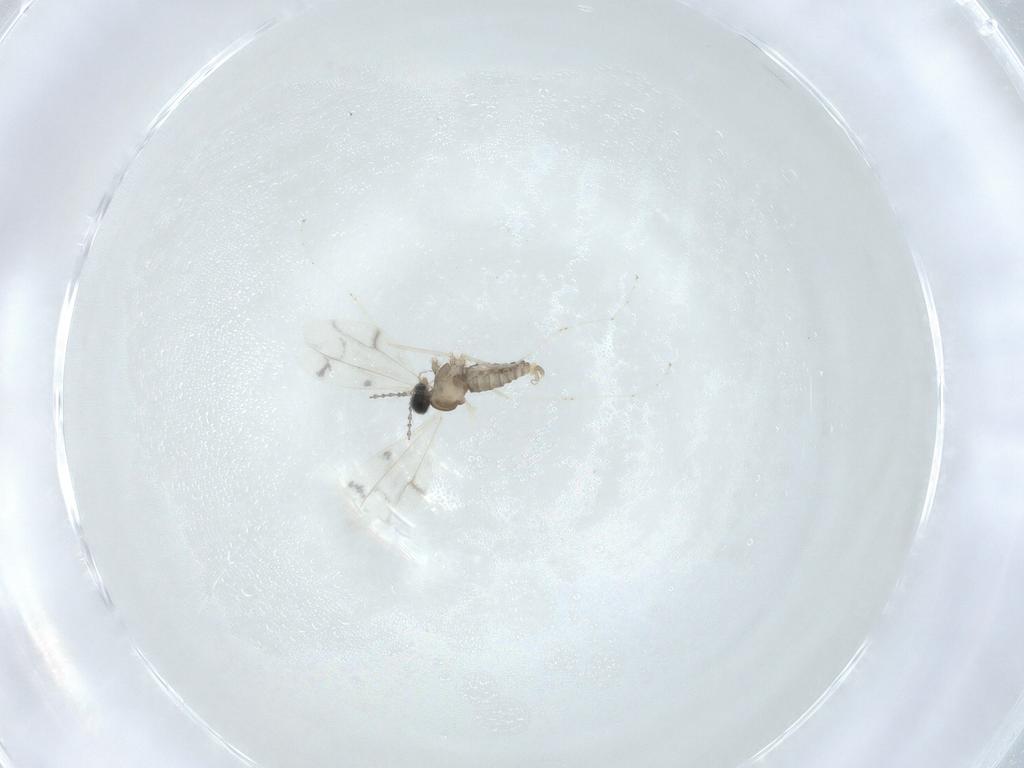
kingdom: Animalia
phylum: Arthropoda
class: Insecta
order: Diptera
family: Cecidomyiidae
